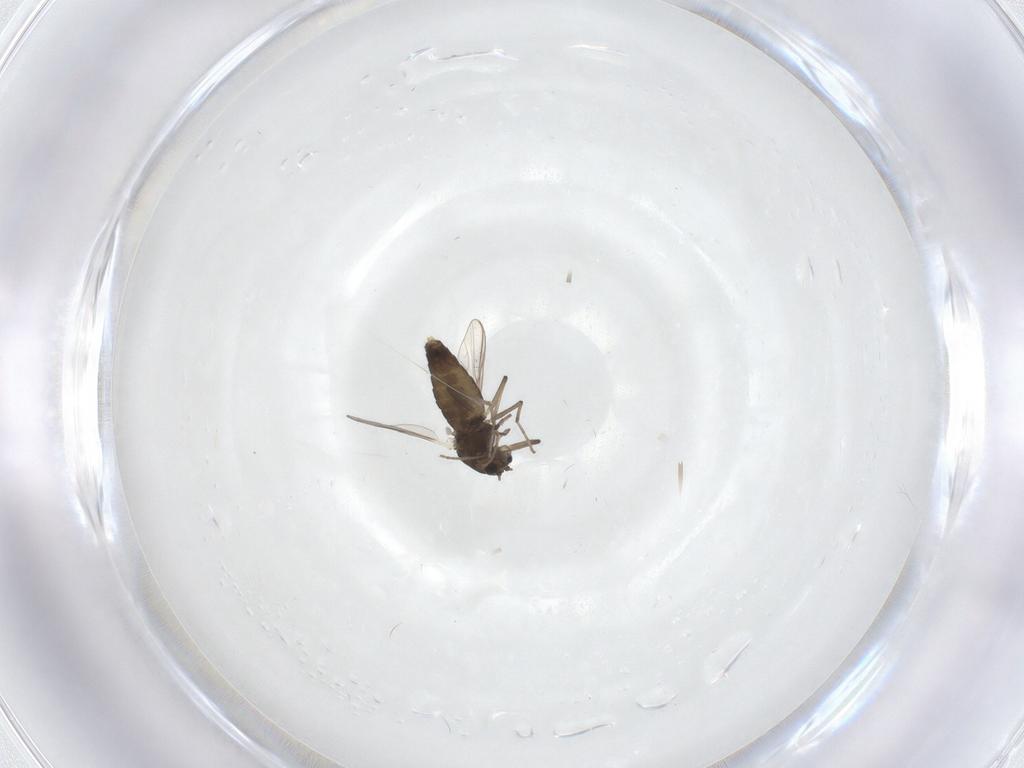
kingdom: Animalia
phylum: Arthropoda
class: Insecta
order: Diptera
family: Chironomidae
